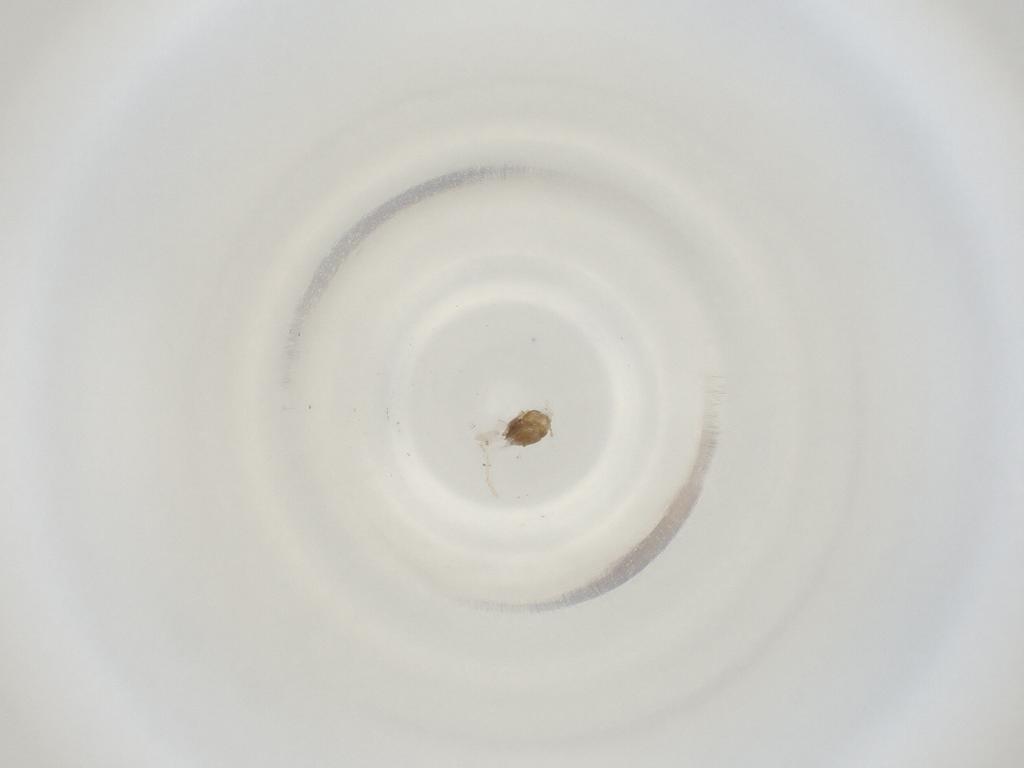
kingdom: Animalia
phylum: Arthropoda
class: Insecta
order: Diptera
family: Cecidomyiidae
